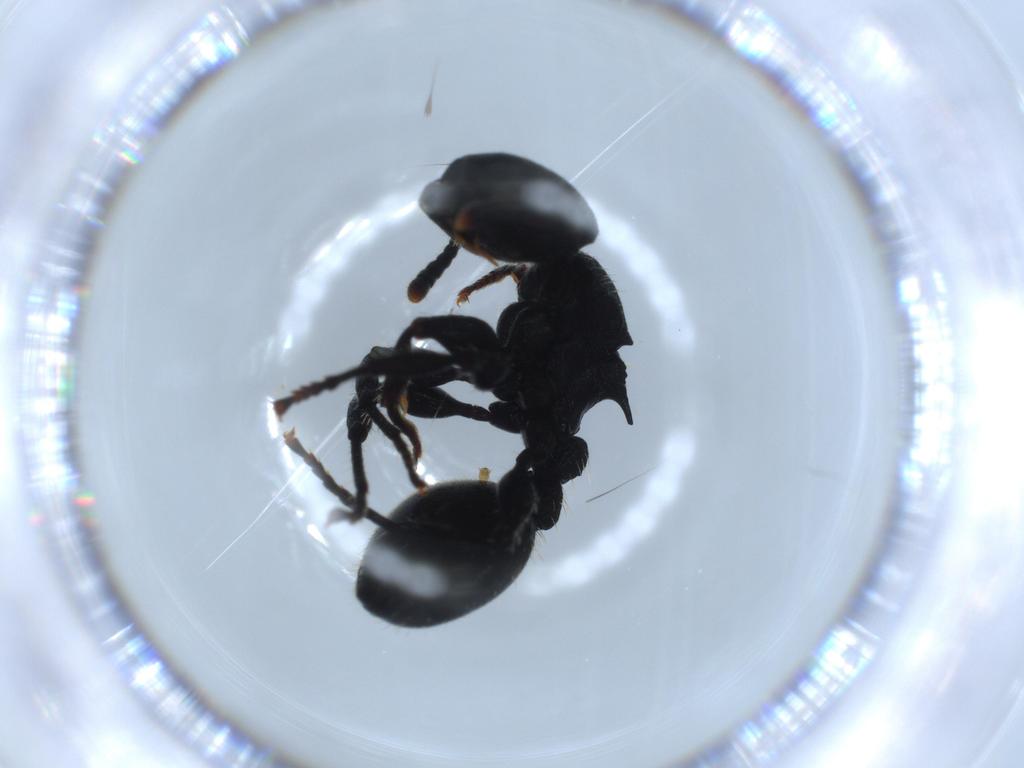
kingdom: Animalia
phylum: Arthropoda
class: Insecta
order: Hymenoptera
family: Formicidae
